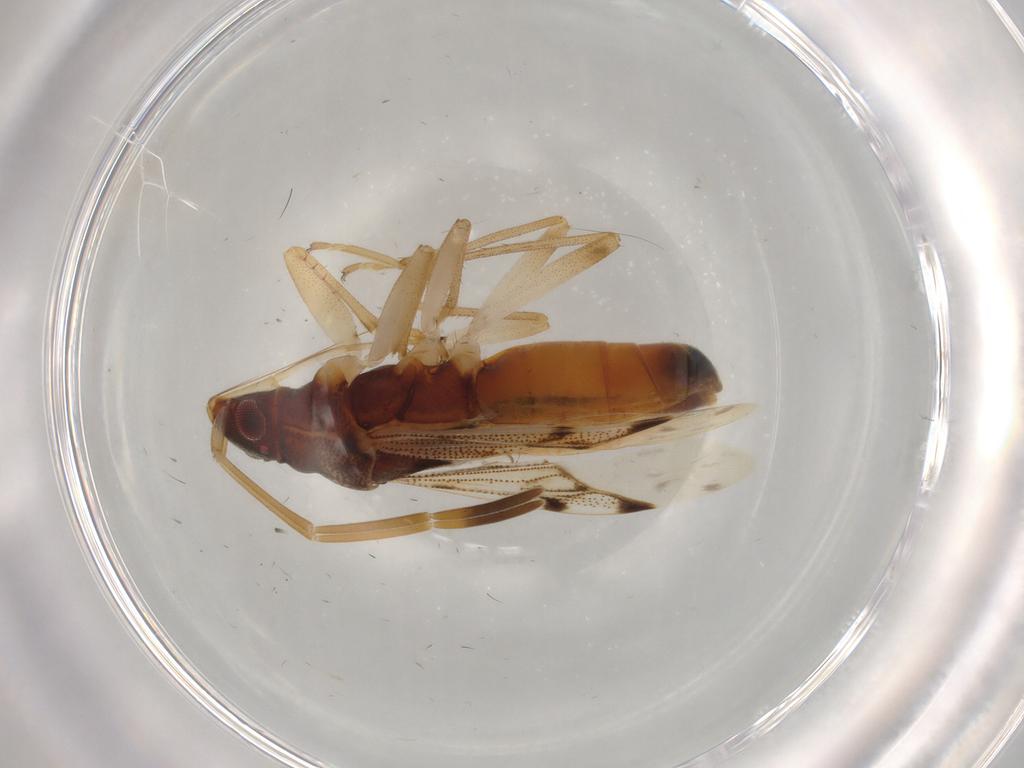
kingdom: Animalia
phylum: Arthropoda
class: Insecta
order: Hemiptera
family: Rhyparochromidae
